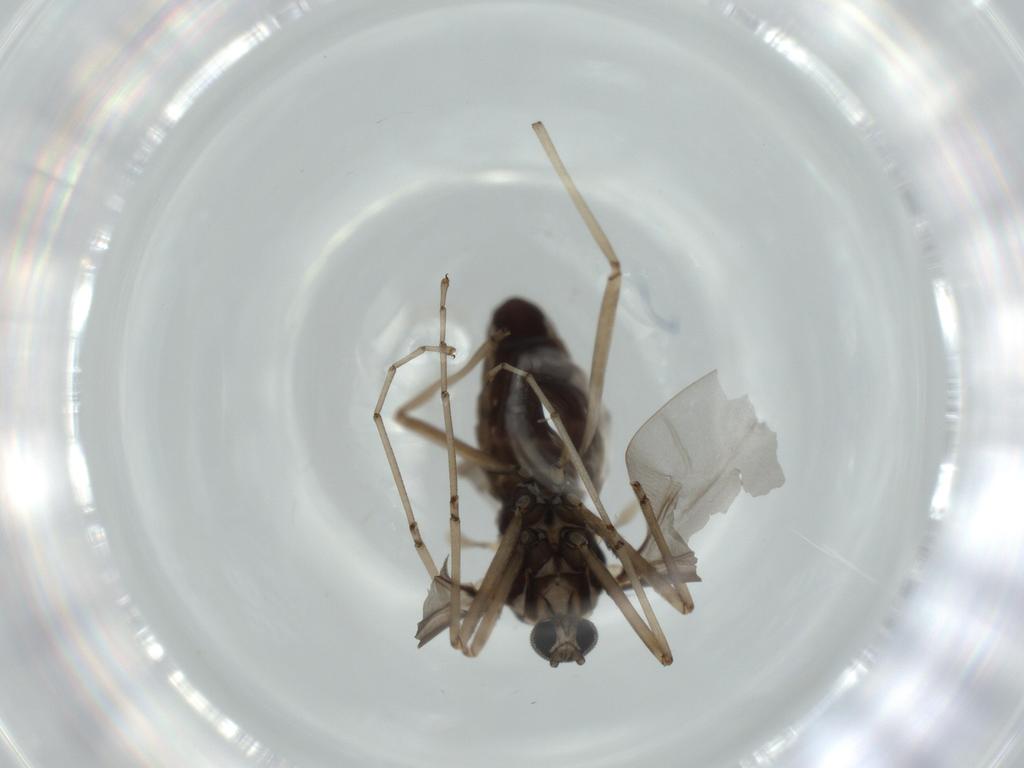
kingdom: Animalia
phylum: Arthropoda
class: Insecta
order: Diptera
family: Cecidomyiidae
